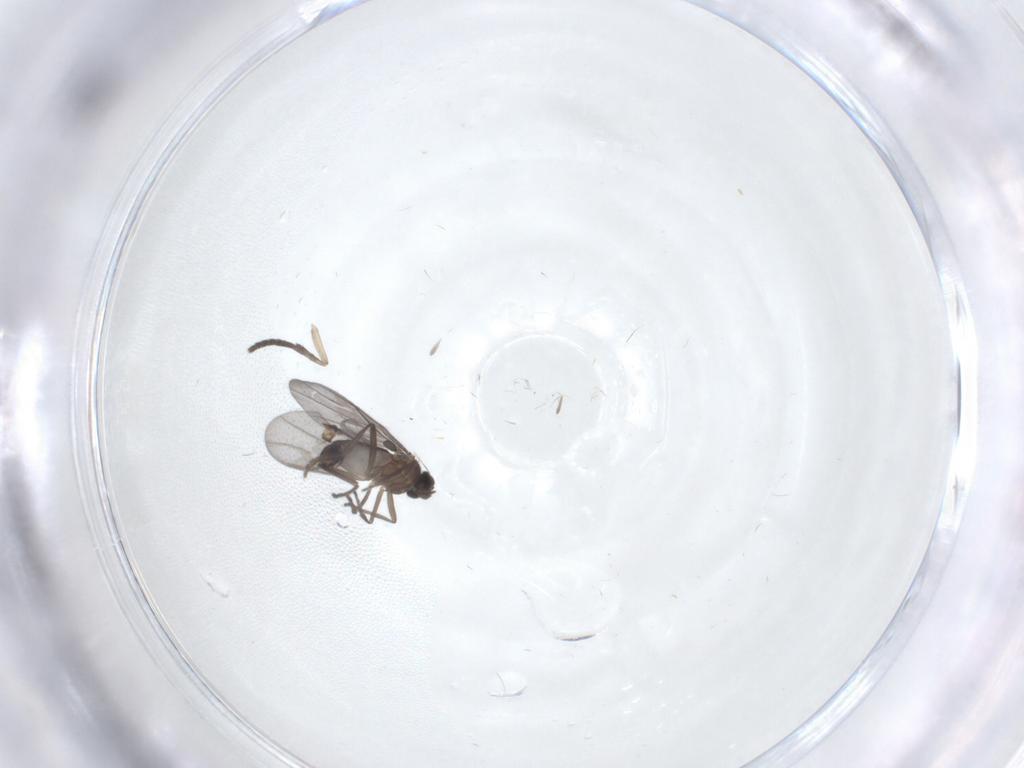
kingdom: Animalia
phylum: Arthropoda
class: Insecta
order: Diptera
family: Phoridae
